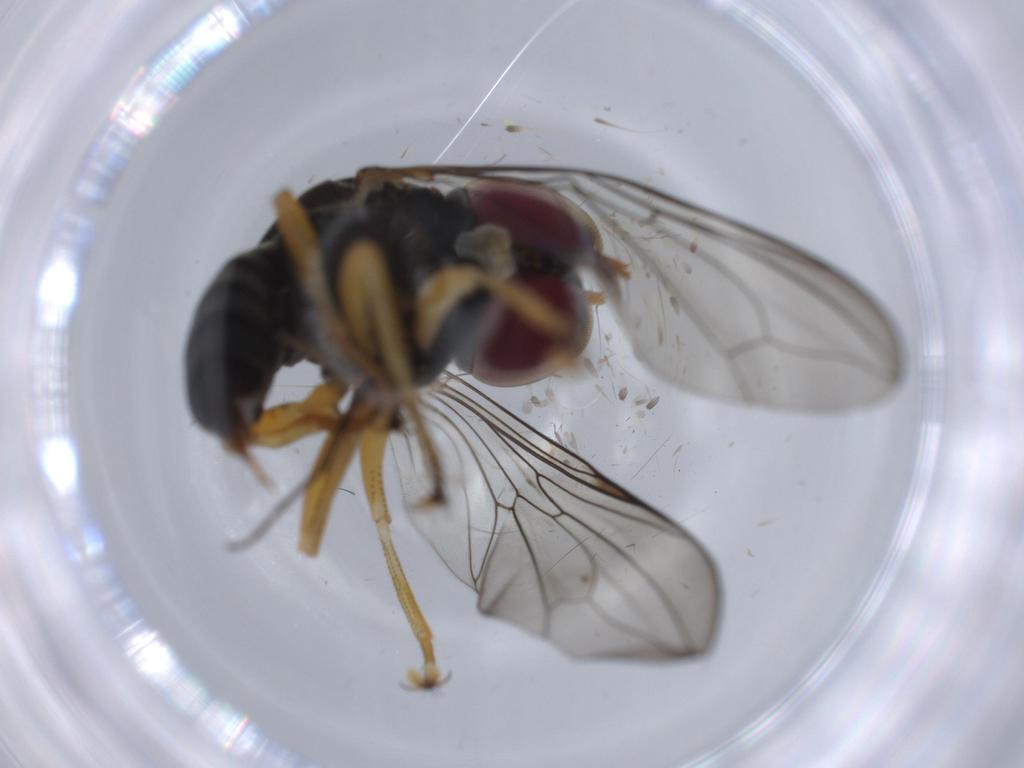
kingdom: Animalia
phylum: Arthropoda
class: Insecta
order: Diptera
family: Sciaridae
